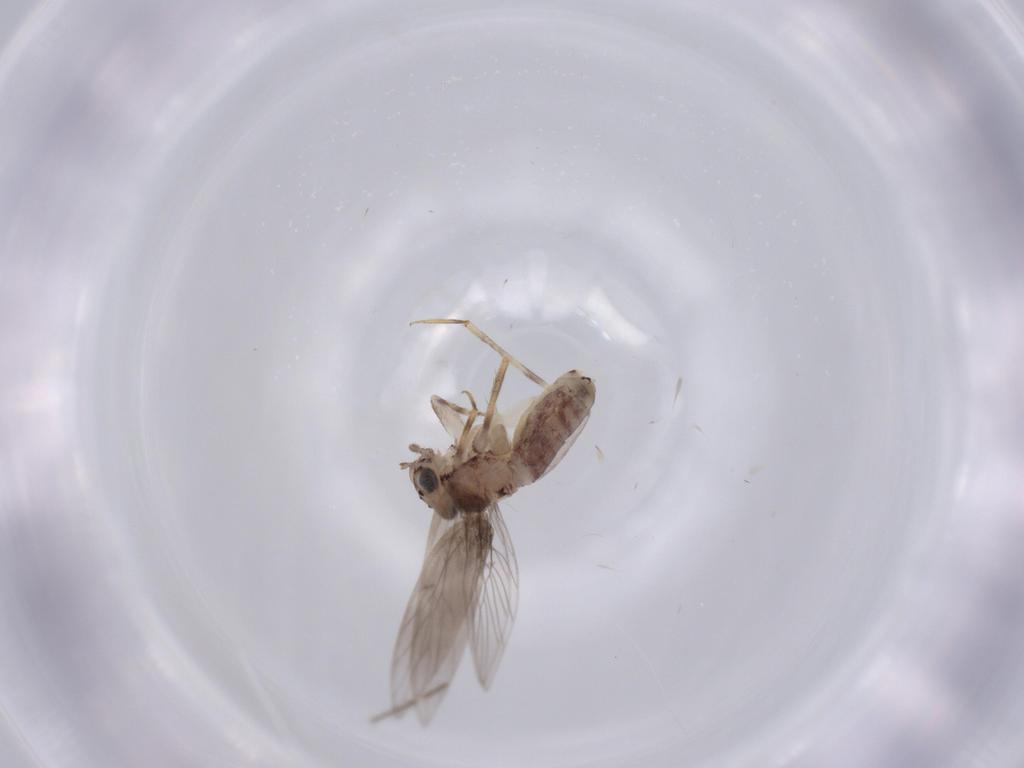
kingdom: Animalia
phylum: Arthropoda
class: Insecta
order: Psocodea
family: Lepidopsocidae
